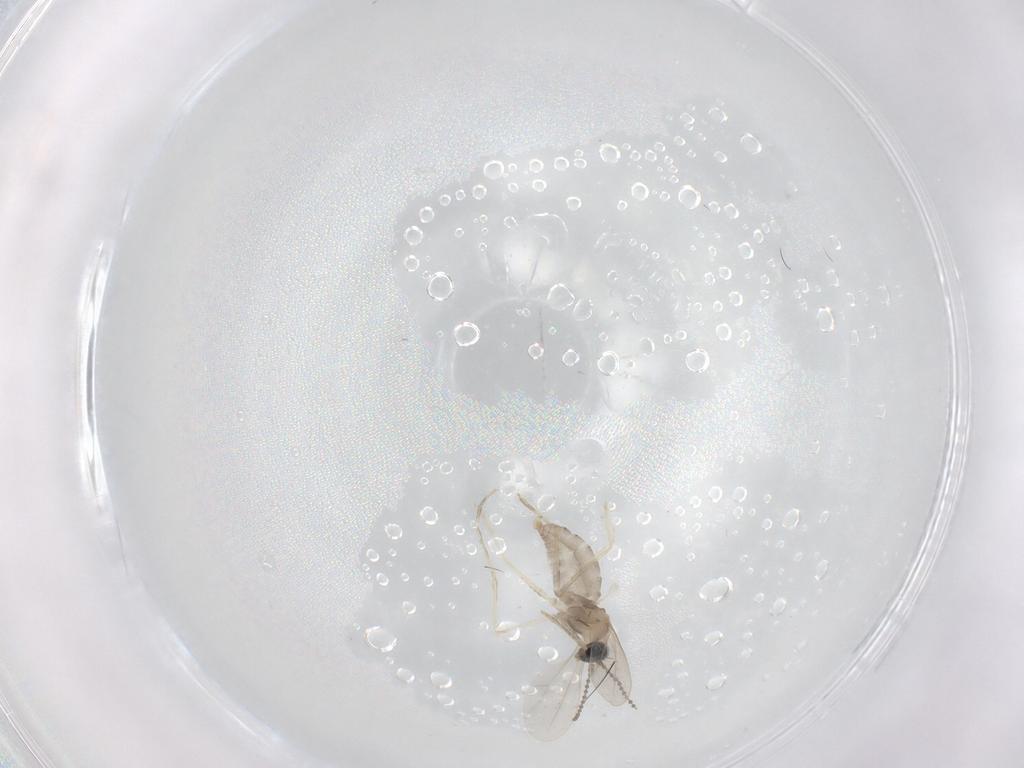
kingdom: Animalia
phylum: Arthropoda
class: Insecta
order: Diptera
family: Cecidomyiidae
